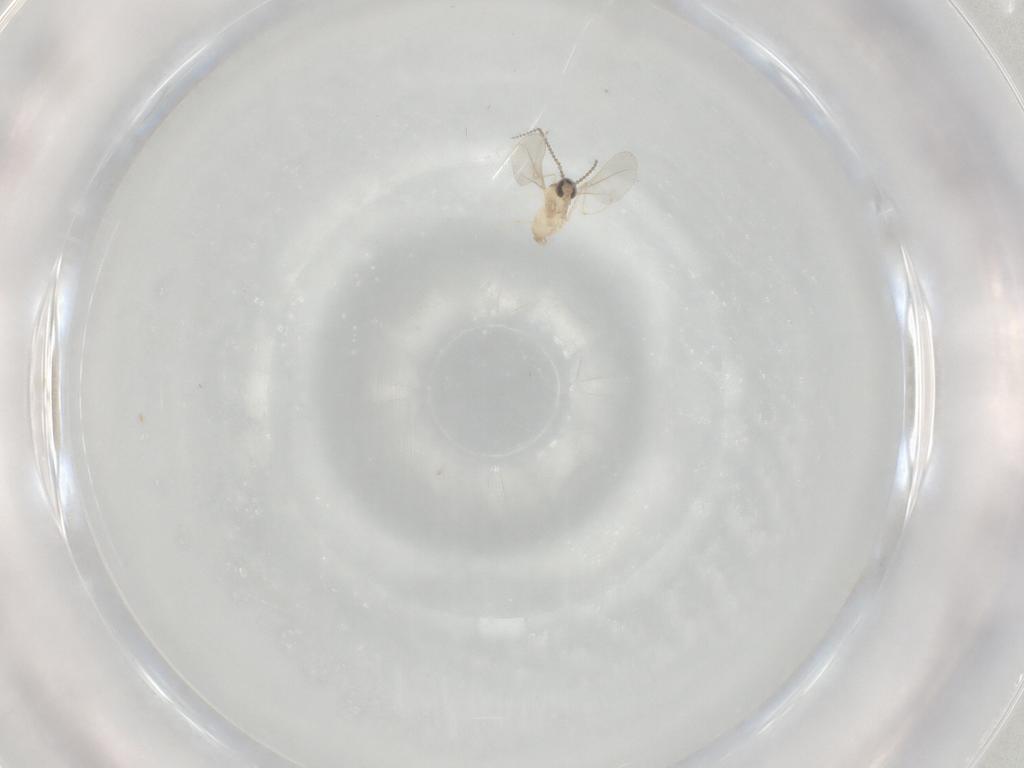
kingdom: Animalia
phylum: Arthropoda
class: Insecta
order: Diptera
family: Cecidomyiidae
